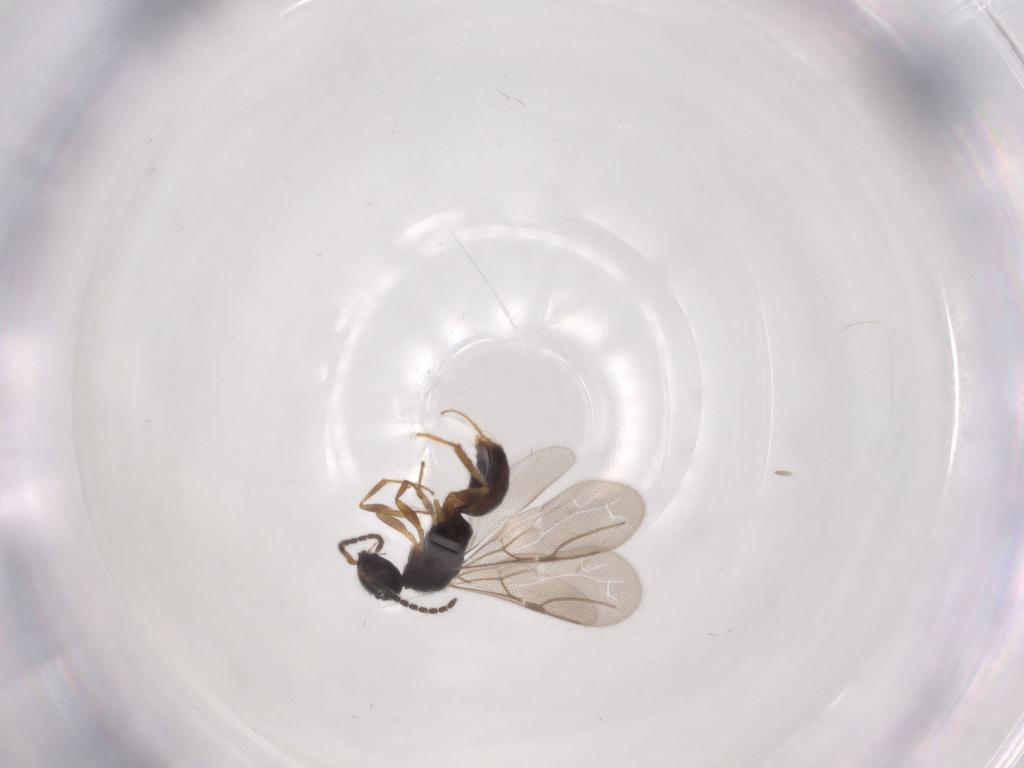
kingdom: Animalia
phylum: Arthropoda
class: Insecta
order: Hymenoptera
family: Bethylidae
